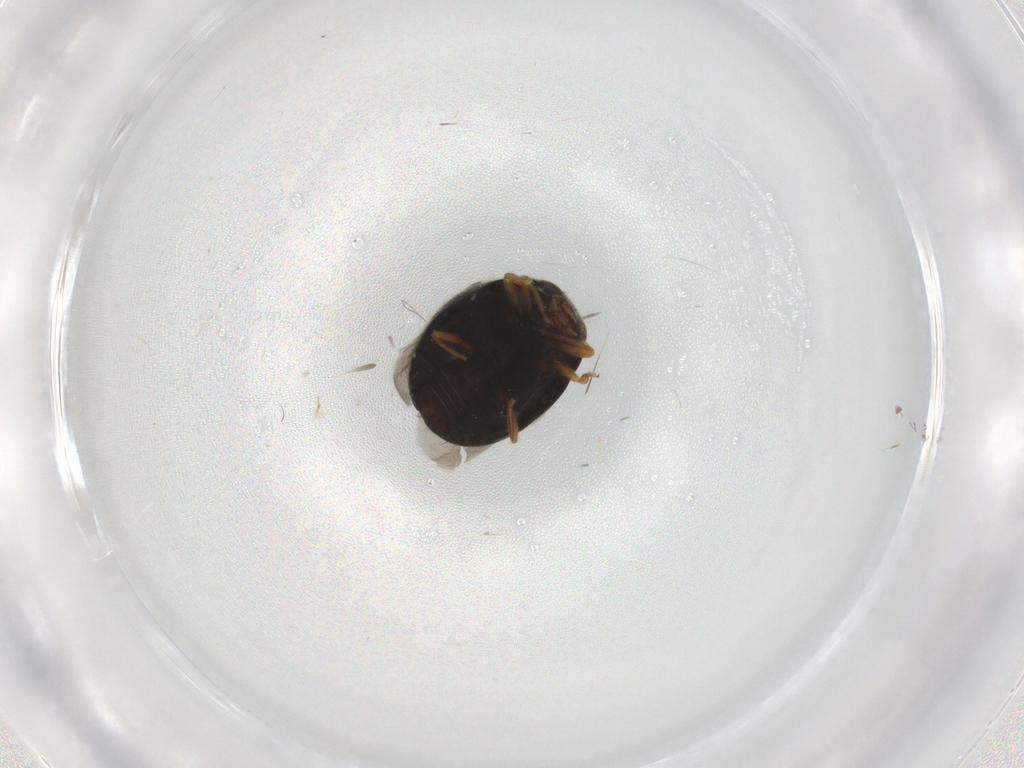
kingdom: Animalia
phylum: Arthropoda
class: Insecta
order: Coleoptera
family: Coccinellidae
